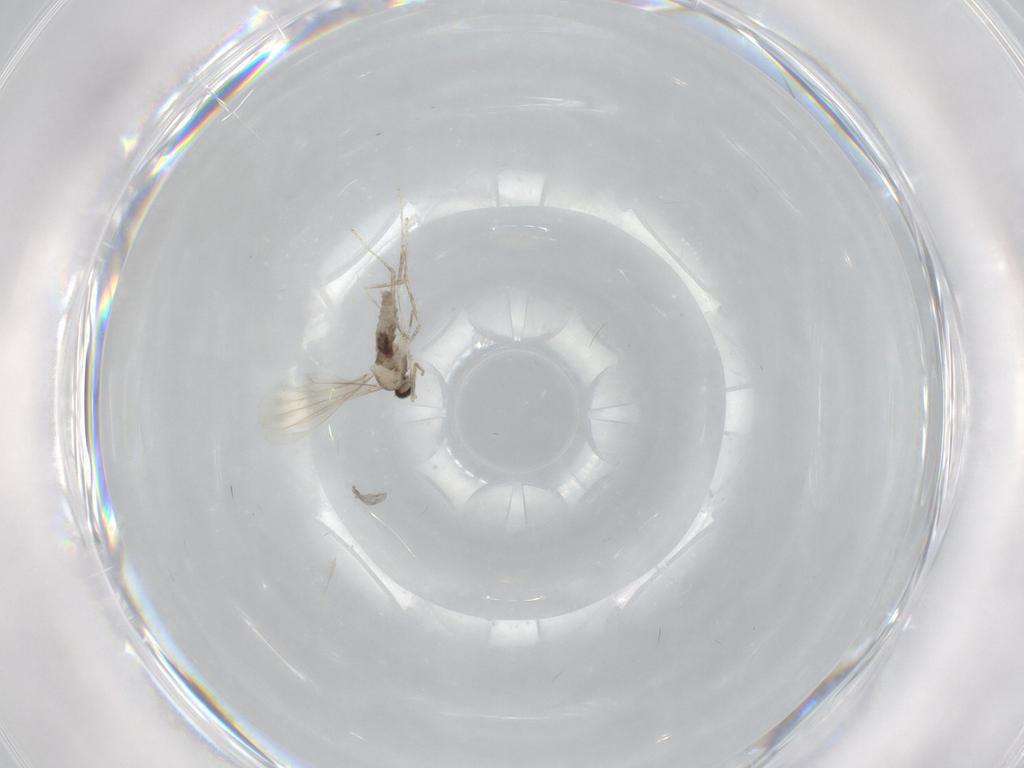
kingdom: Animalia
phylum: Arthropoda
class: Insecta
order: Diptera
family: Cecidomyiidae
